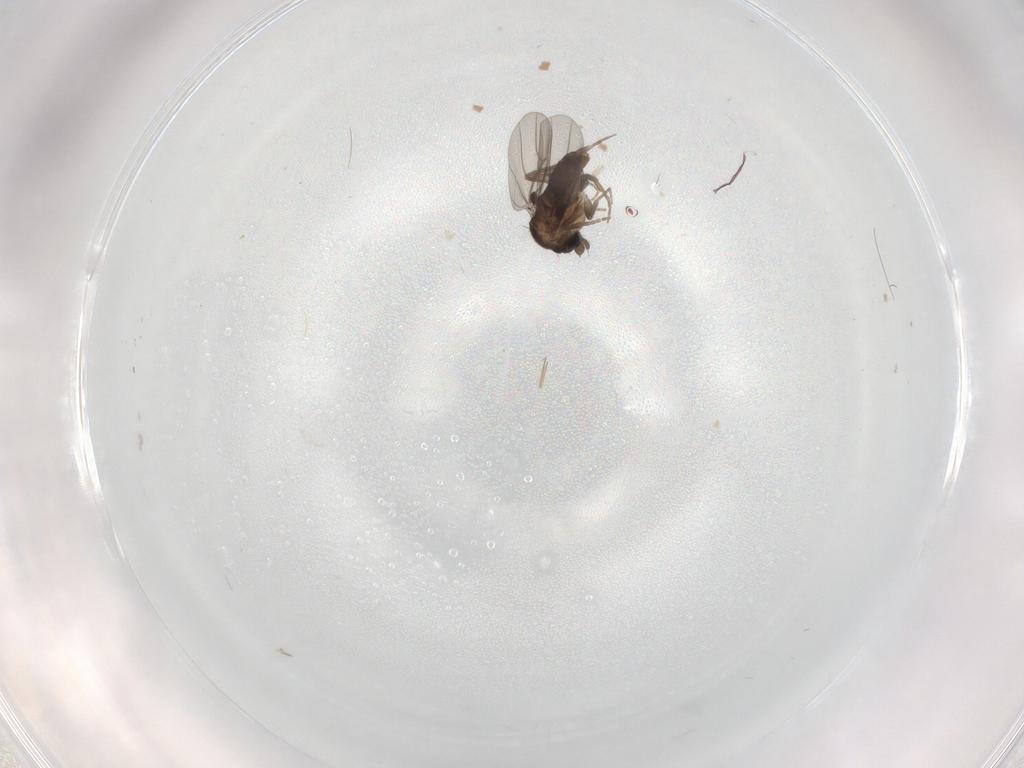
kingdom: Animalia
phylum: Arthropoda
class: Insecta
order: Diptera
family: Phoridae
